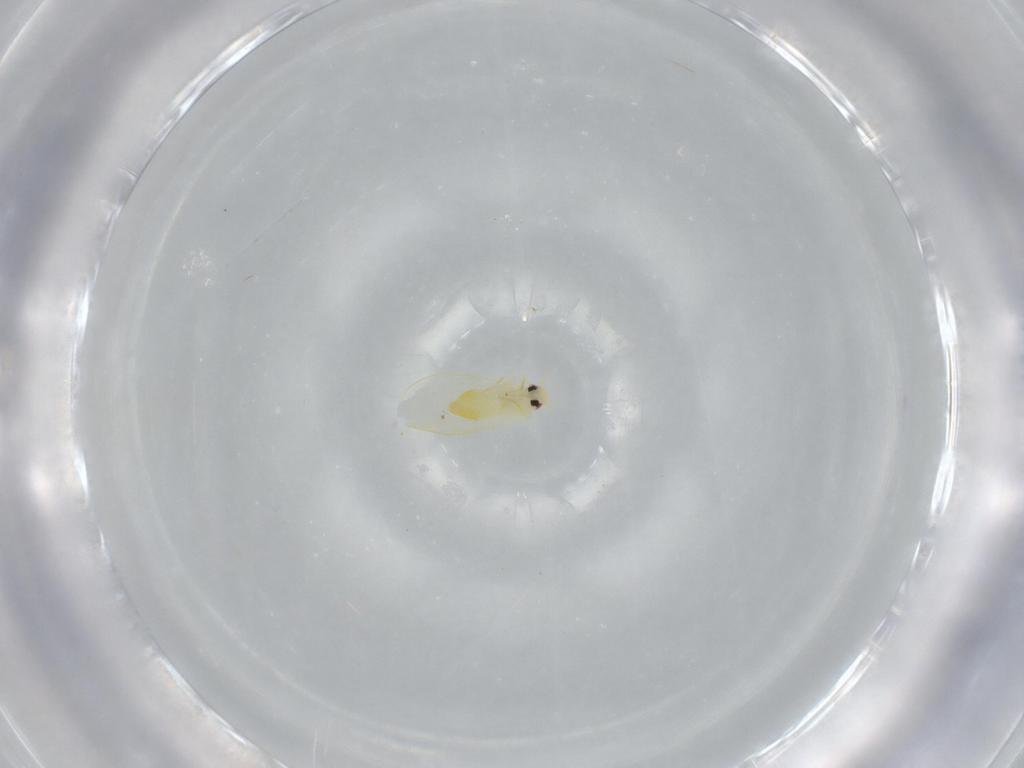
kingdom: Animalia
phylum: Arthropoda
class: Insecta
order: Hemiptera
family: Aleyrodidae
